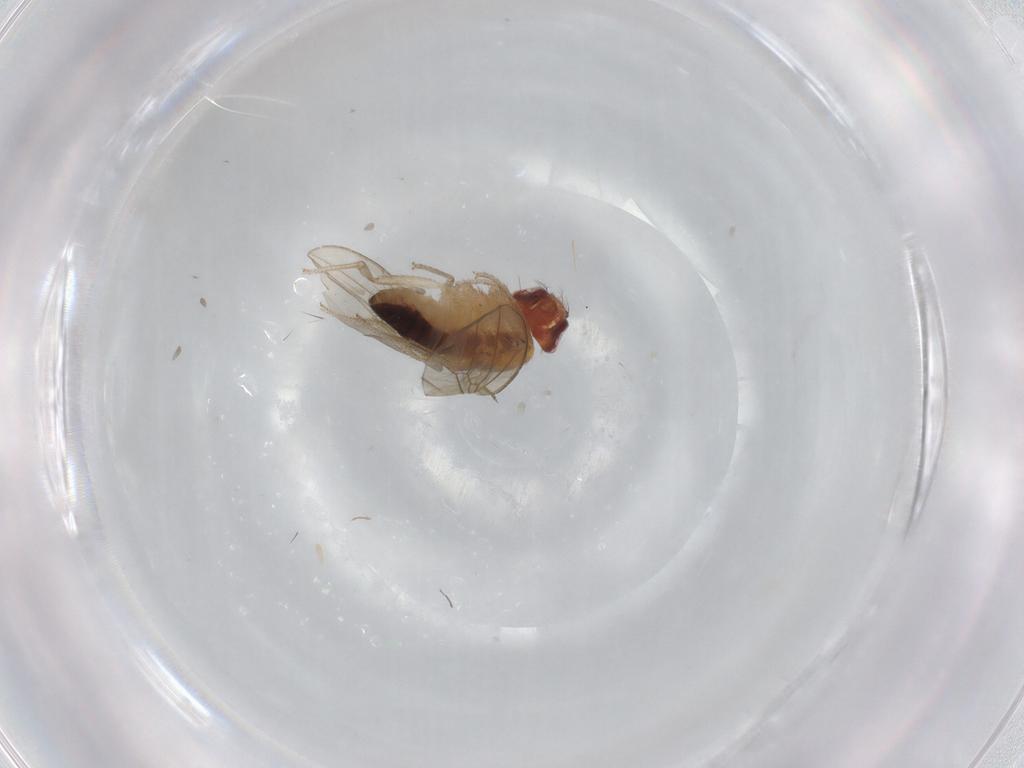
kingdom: Animalia
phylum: Arthropoda
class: Insecta
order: Diptera
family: Drosophilidae
